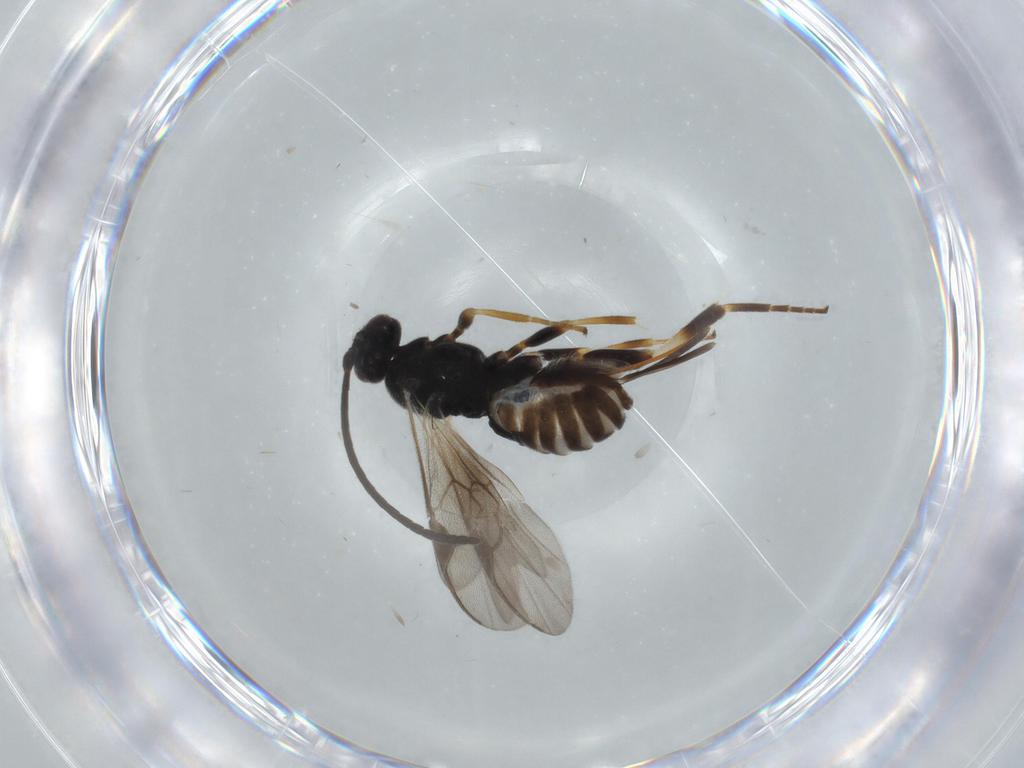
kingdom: Animalia
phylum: Arthropoda
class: Insecta
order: Hymenoptera
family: Braconidae
